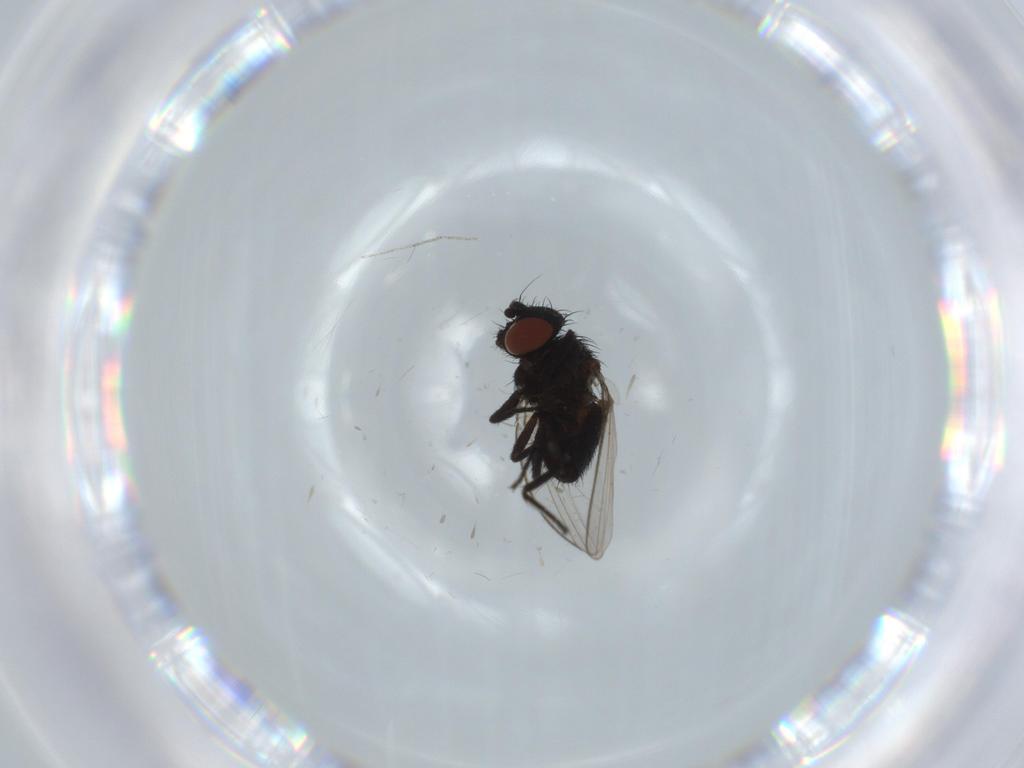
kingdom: Animalia
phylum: Arthropoda
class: Insecta
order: Diptera
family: Milichiidae
